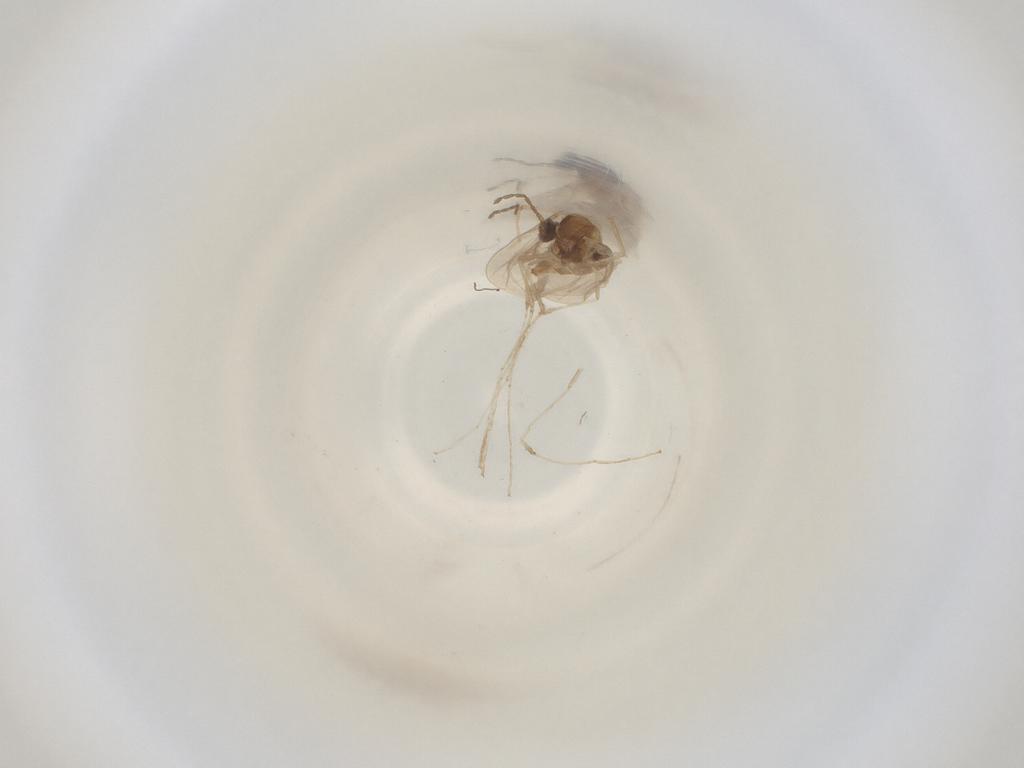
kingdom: Animalia
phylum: Arthropoda
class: Insecta
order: Diptera
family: Cecidomyiidae
